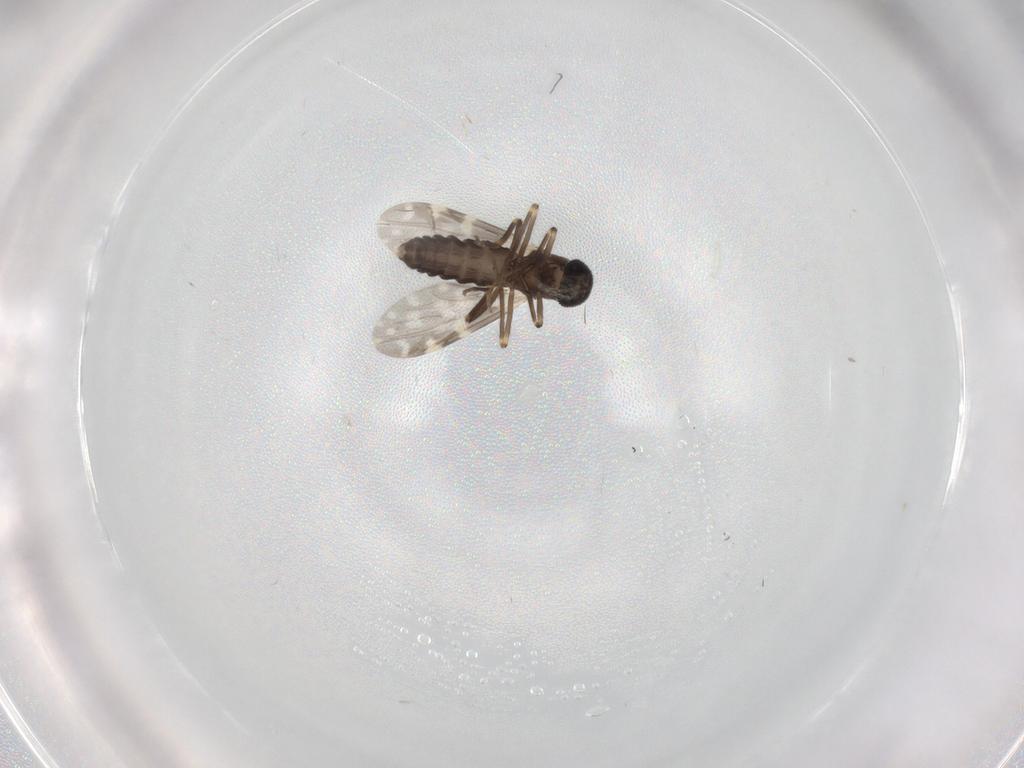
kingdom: Animalia
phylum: Arthropoda
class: Insecta
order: Diptera
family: Ceratopogonidae
